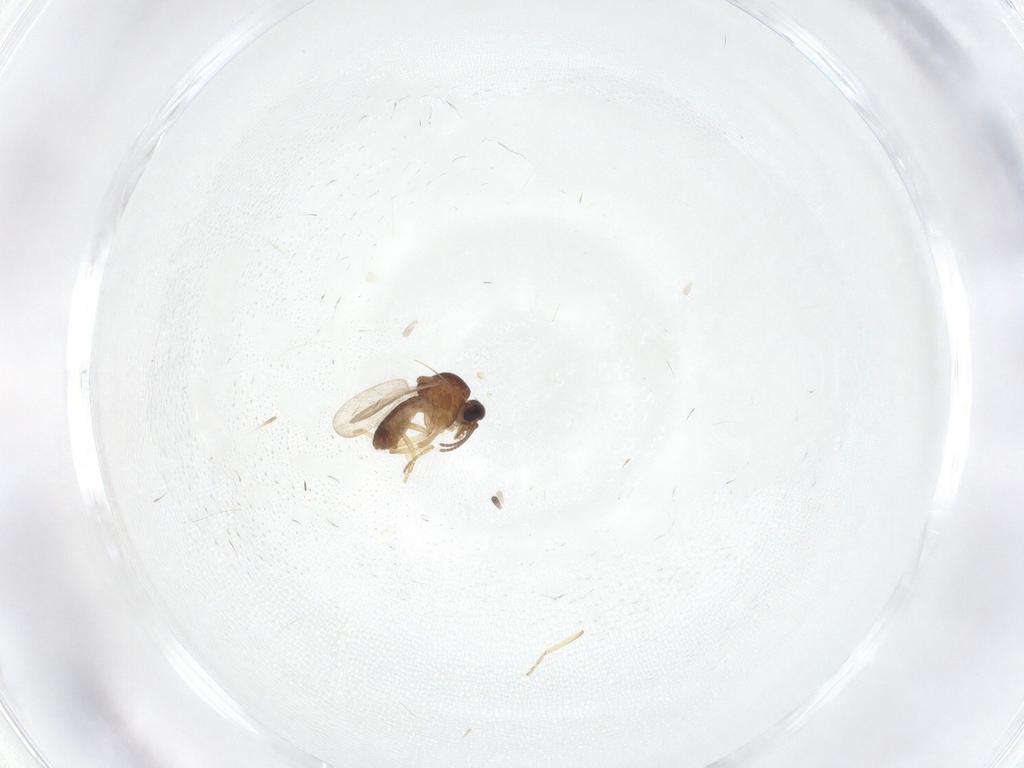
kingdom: Animalia
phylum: Arthropoda
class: Insecta
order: Diptera
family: Ceratopogonidae
